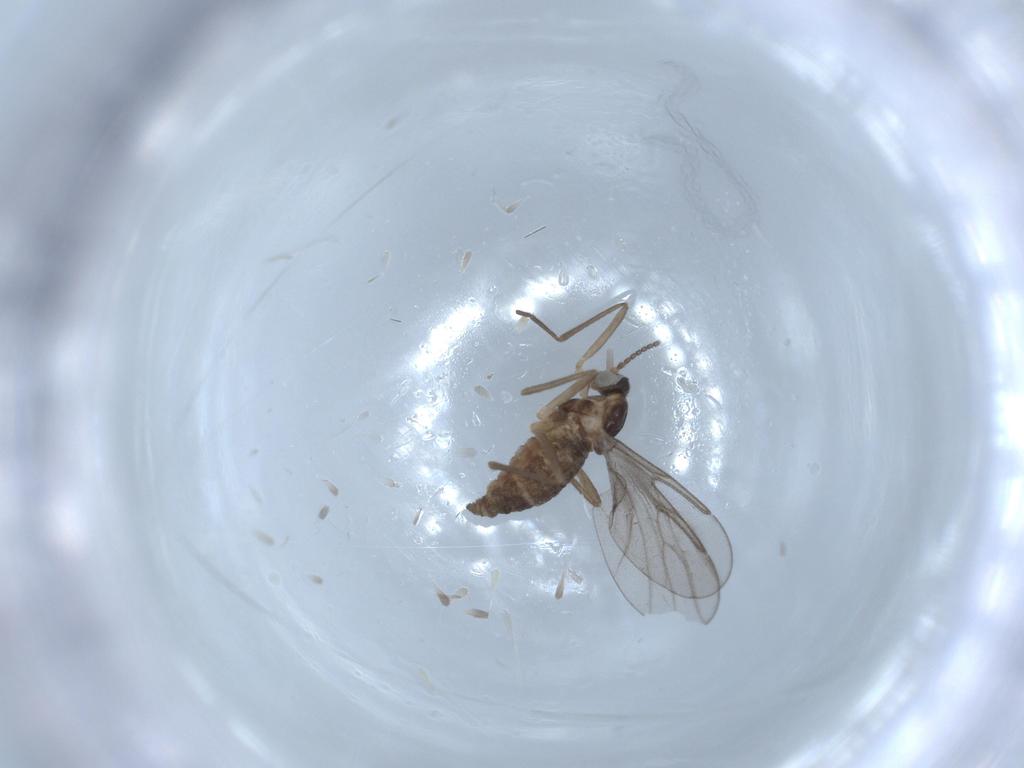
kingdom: Animalia
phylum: Arthropoda
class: Insecta
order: Diptera
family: Cecidomyiidae
